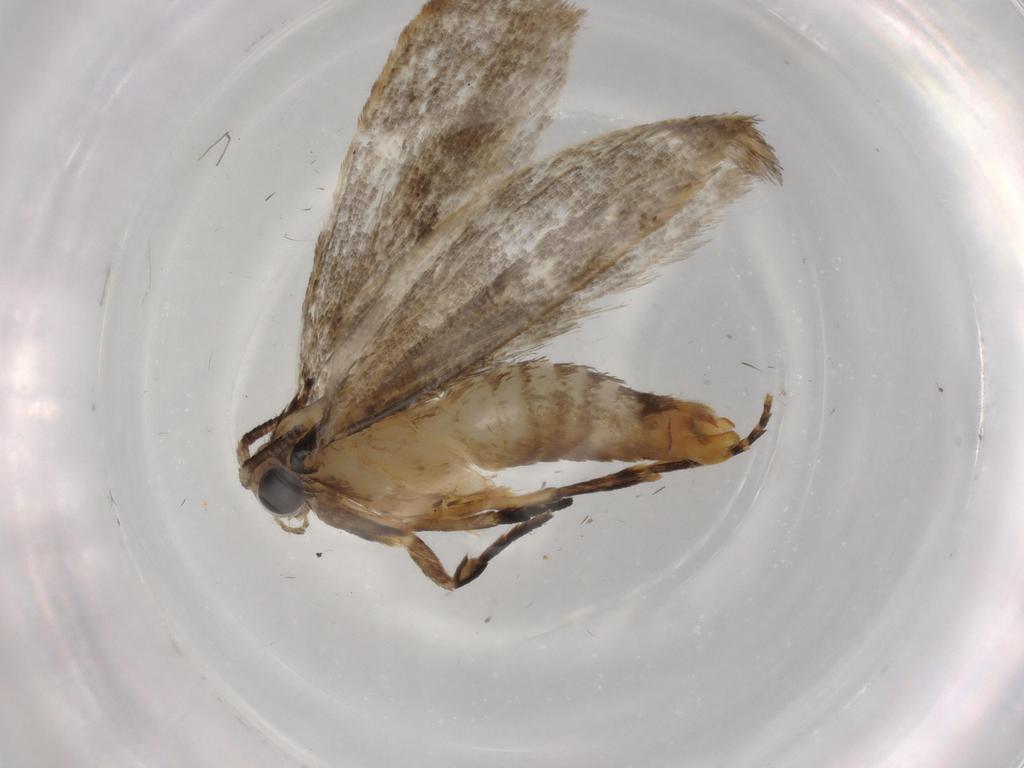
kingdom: Animalia
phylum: Arthropoda
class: Insecta
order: Lepidoptera
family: Tineidae
